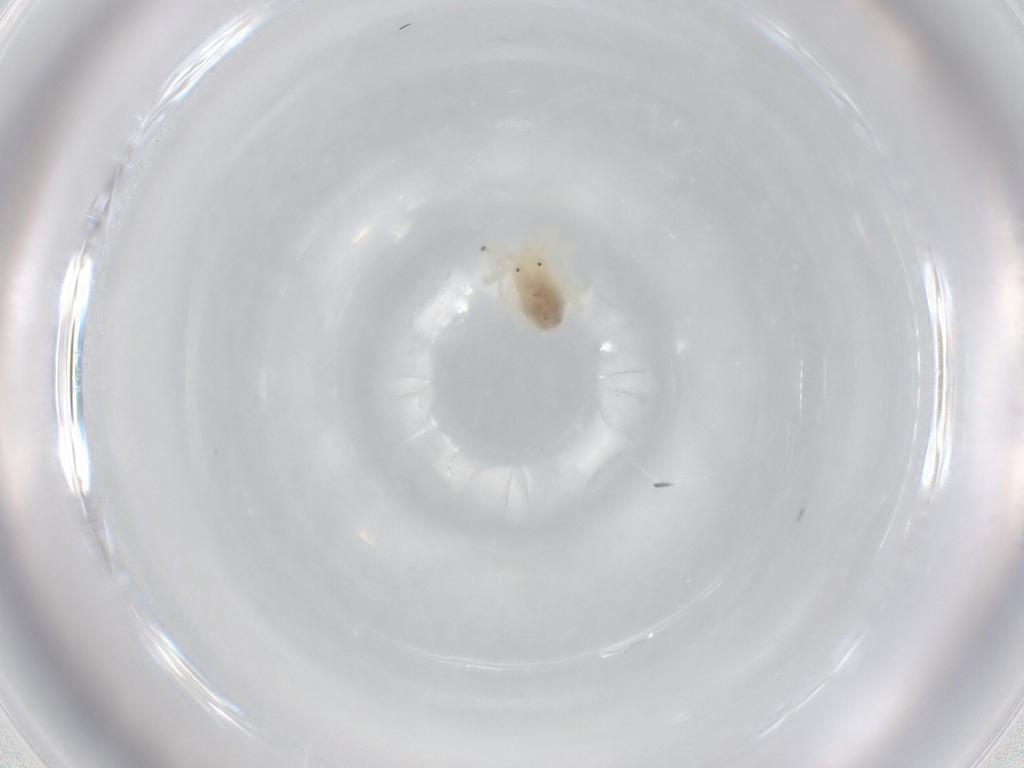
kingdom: Animalia
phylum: Arthropoda
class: Arachnida
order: Trombidiformes
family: Anystidae
